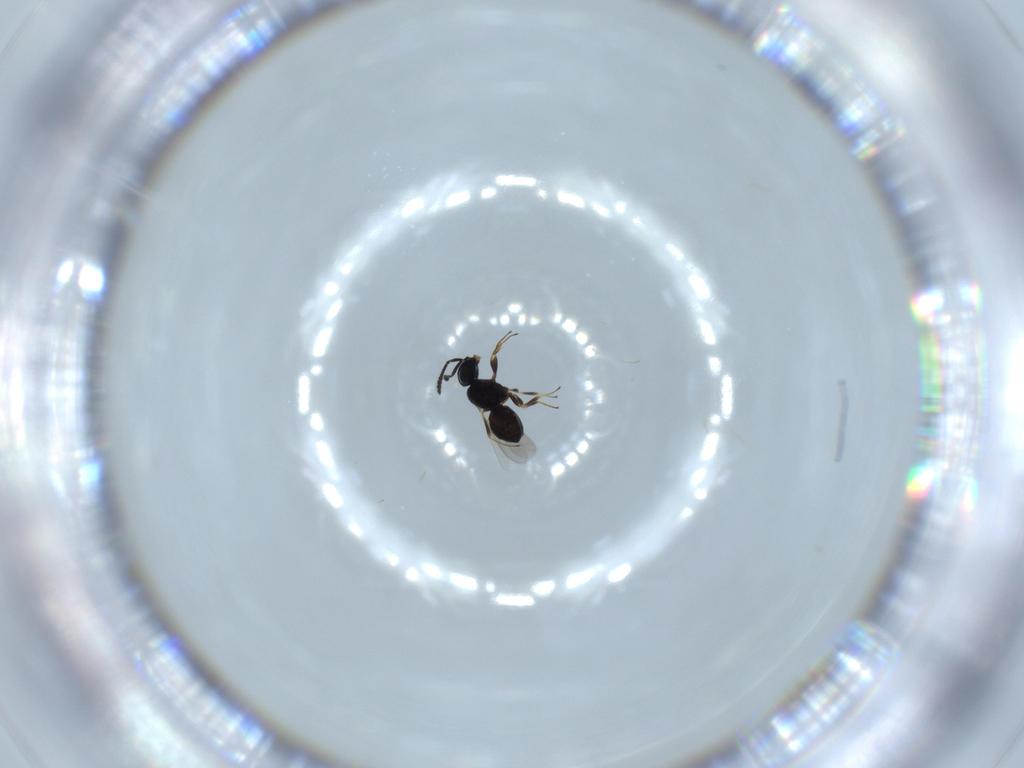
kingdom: Animalia
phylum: Arthropoda
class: Insecta
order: Hymenoptera
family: Scelionidae
